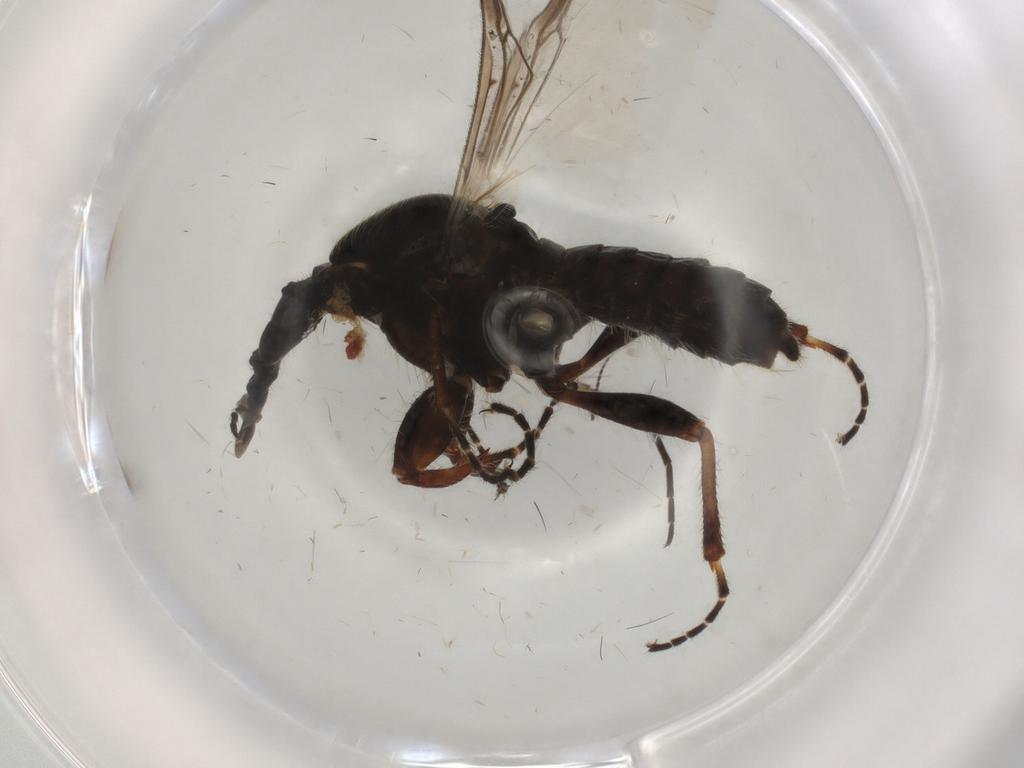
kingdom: Animalia
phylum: Arthropoda
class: Insecta
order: Diptera
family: Bibionidae
